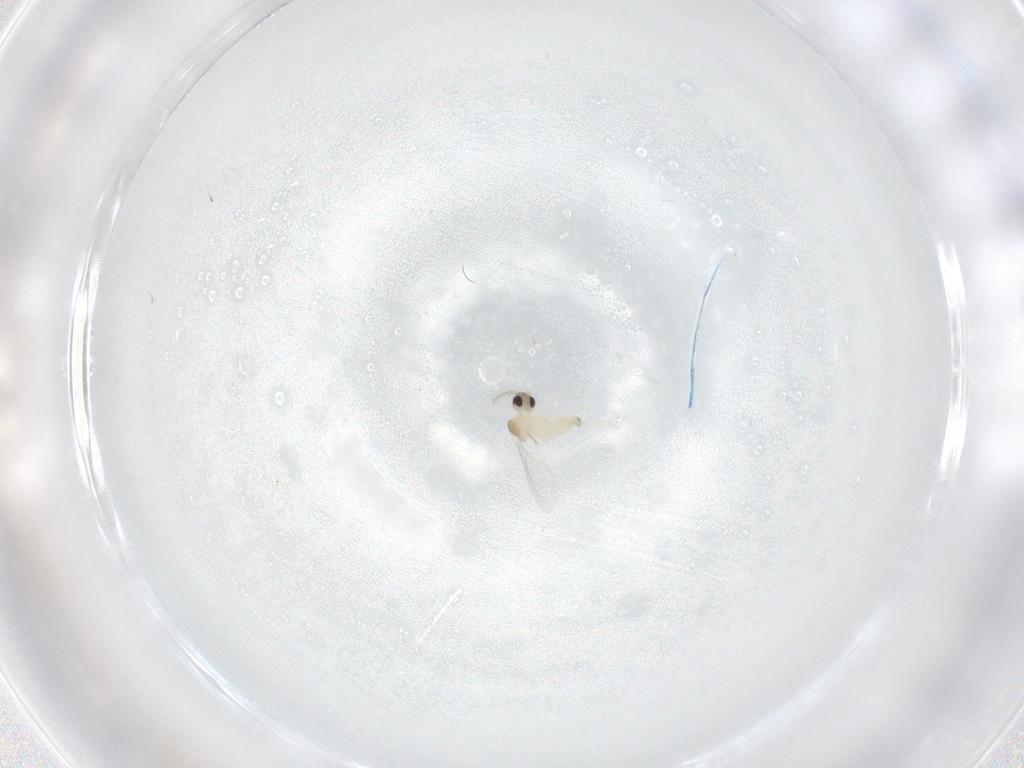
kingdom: Animalia
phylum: Arthropoda
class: Insecta
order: Diptera
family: Cecidomyiidae
